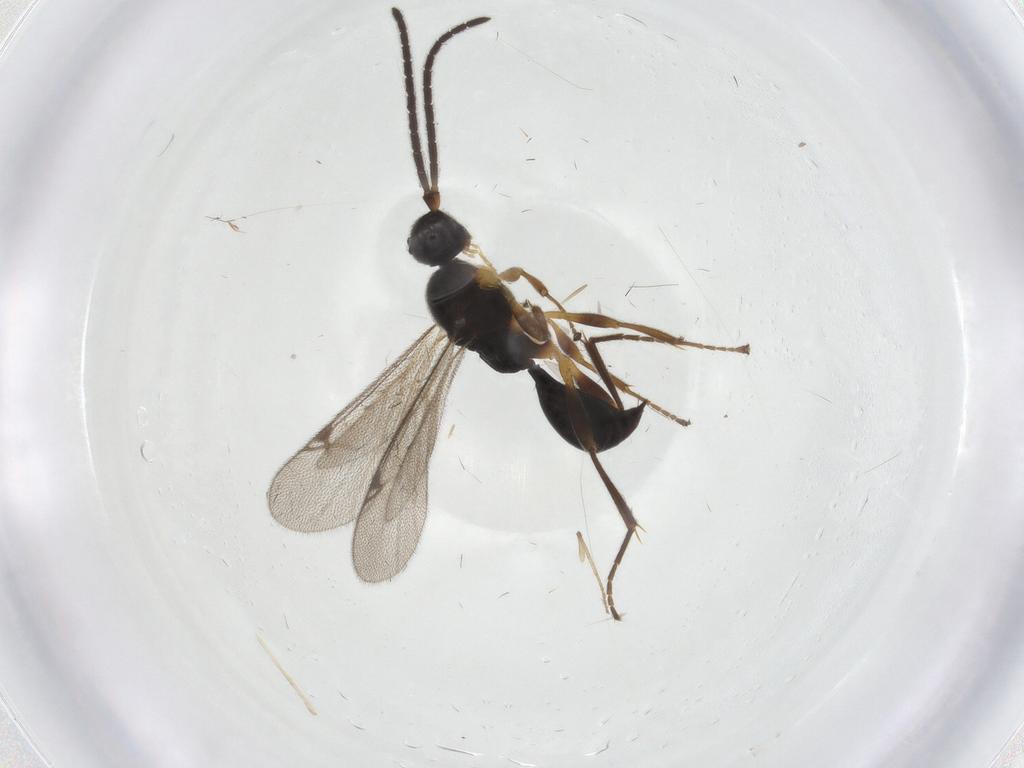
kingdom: Animalia
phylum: Arthropoda
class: Insecta
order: Hymenoptera
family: Proctotrupidae
